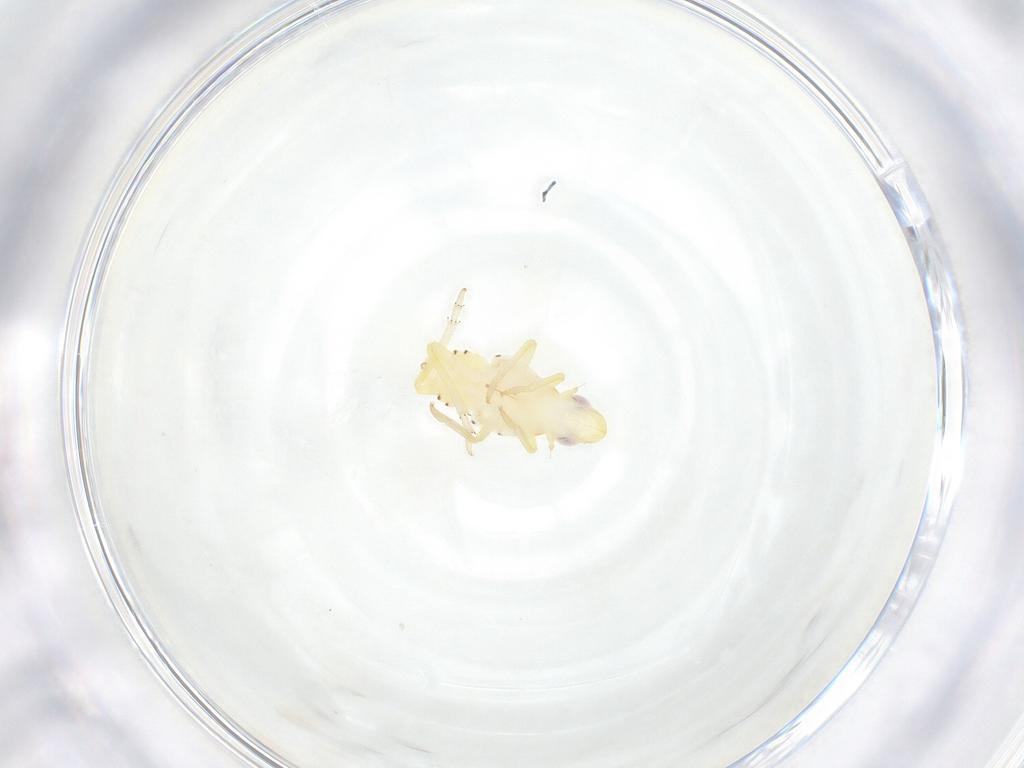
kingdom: Animalia
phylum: Arthropoda
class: Insecta
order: Hemiptera
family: Tropiduchidae
